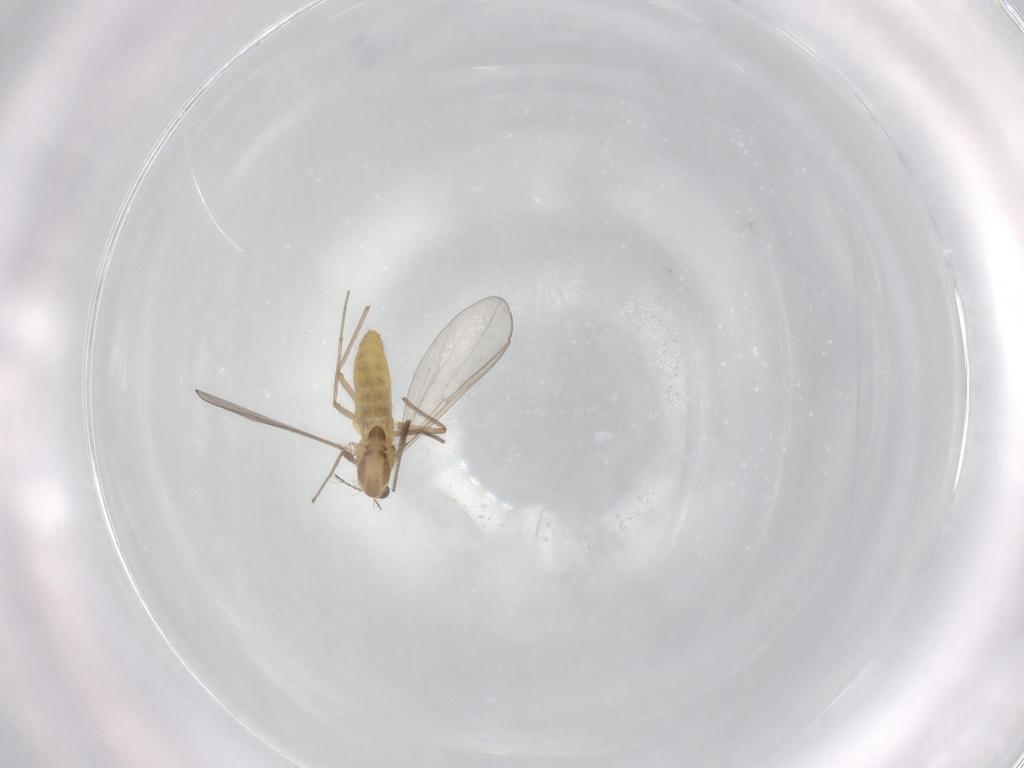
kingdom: Animalia
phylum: Arthropoda
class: Insecta
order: Diptera
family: Chironomidae
